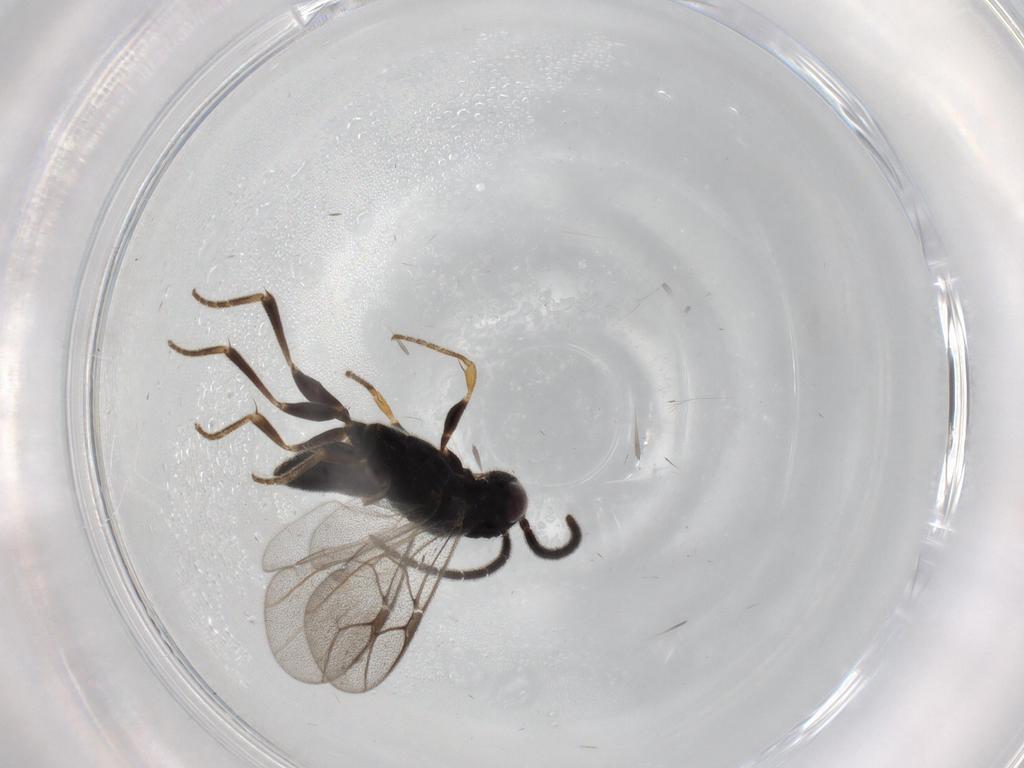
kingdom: Animalia
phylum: Arthropoda
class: Insecta
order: Hymenoptera
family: Dryinidae
